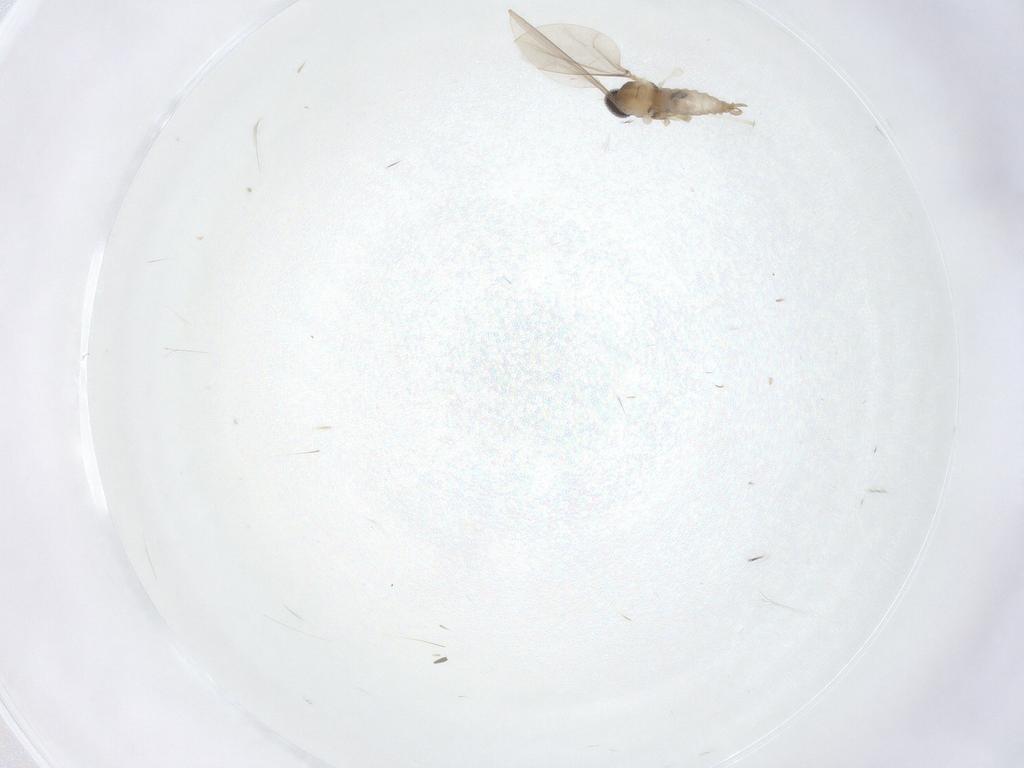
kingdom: Animalia
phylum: Arthropoda
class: Insecta
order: Diptera
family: Cecidomyiidae
